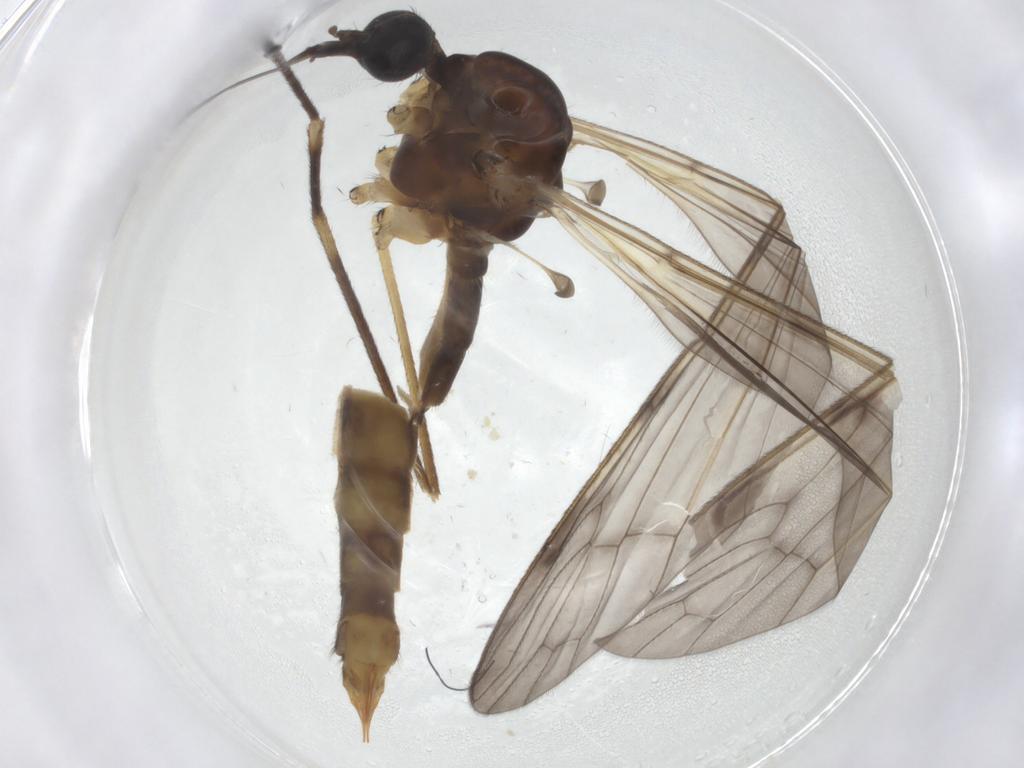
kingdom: Animalia
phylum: Arthropoda
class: Insecta
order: Diptera
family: Limoniidae
